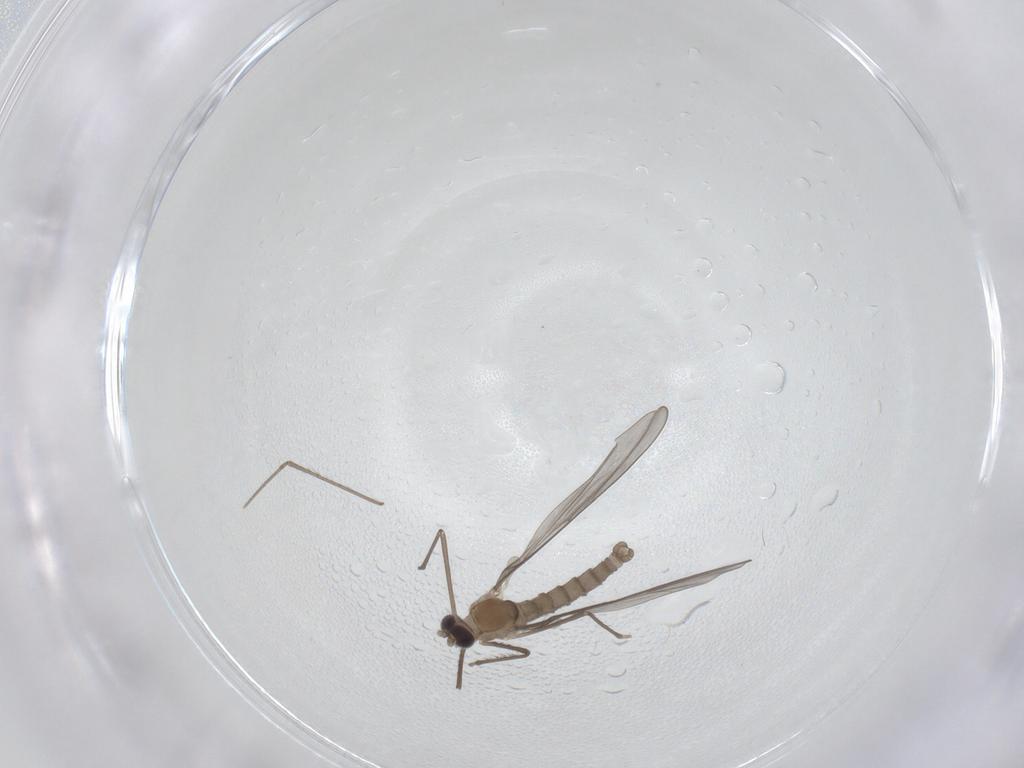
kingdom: Animalia
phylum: Arthropoda
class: Insecta
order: Diptera
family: Cecidomyiidae
